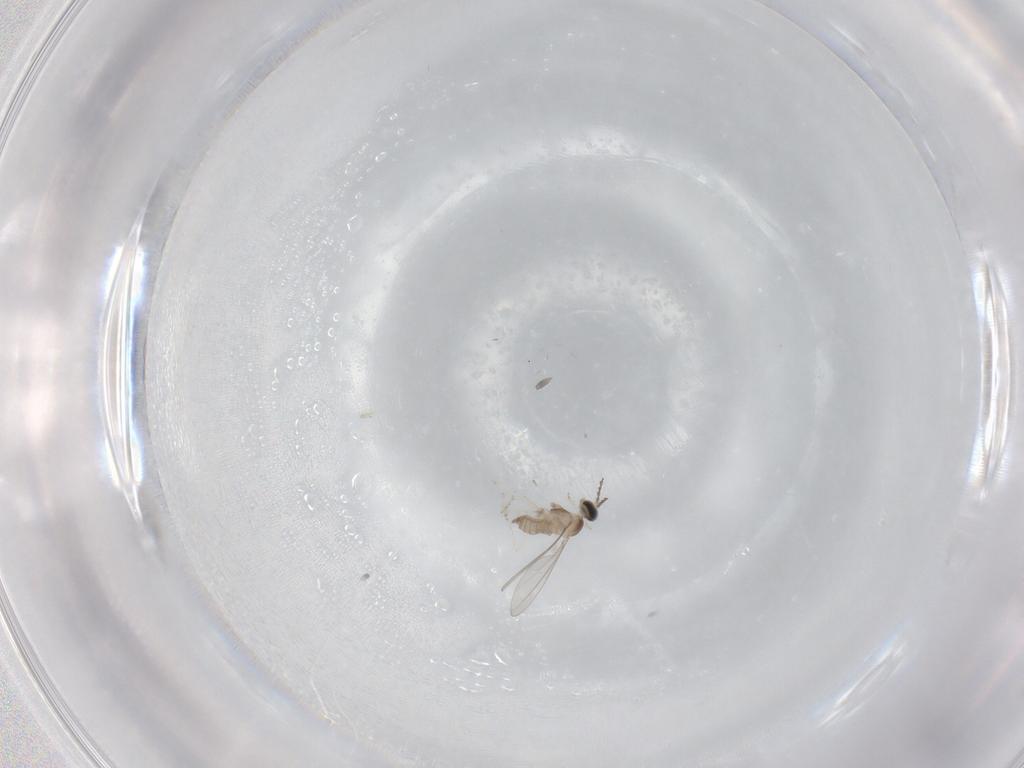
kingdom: Animalia
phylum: Arthropoda
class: Insecta
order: Diptera
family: Cecidomyiidae
